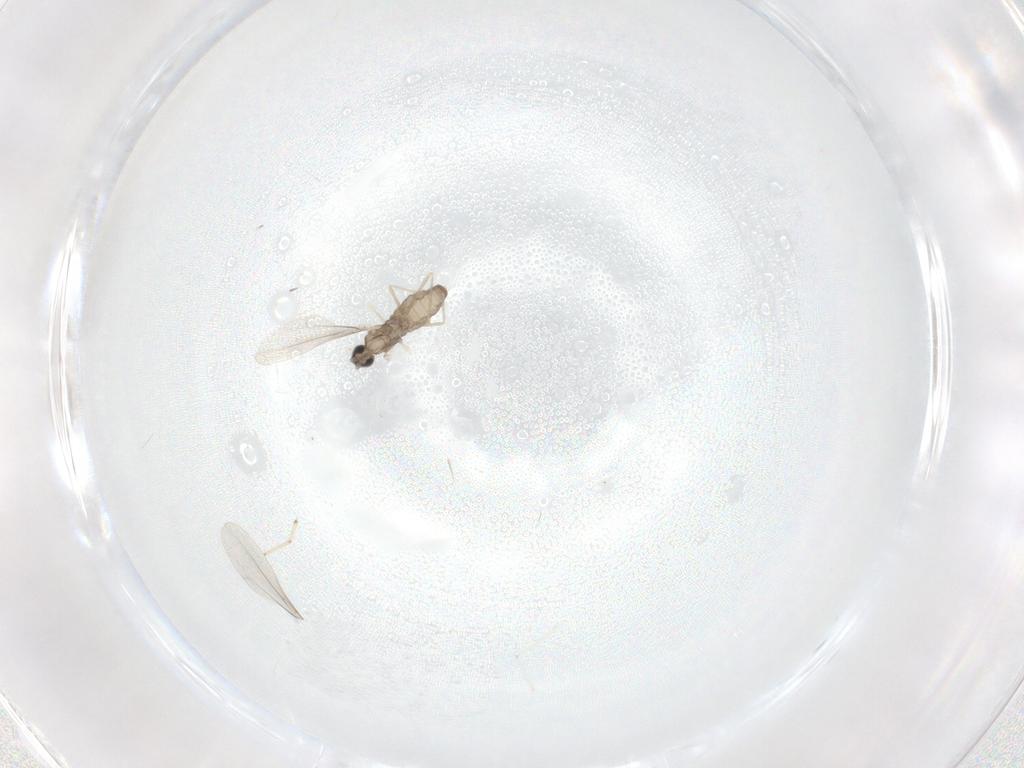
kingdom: Animalia
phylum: Arthropoda
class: Insecta
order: Diptera
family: Cecidomyiidae
